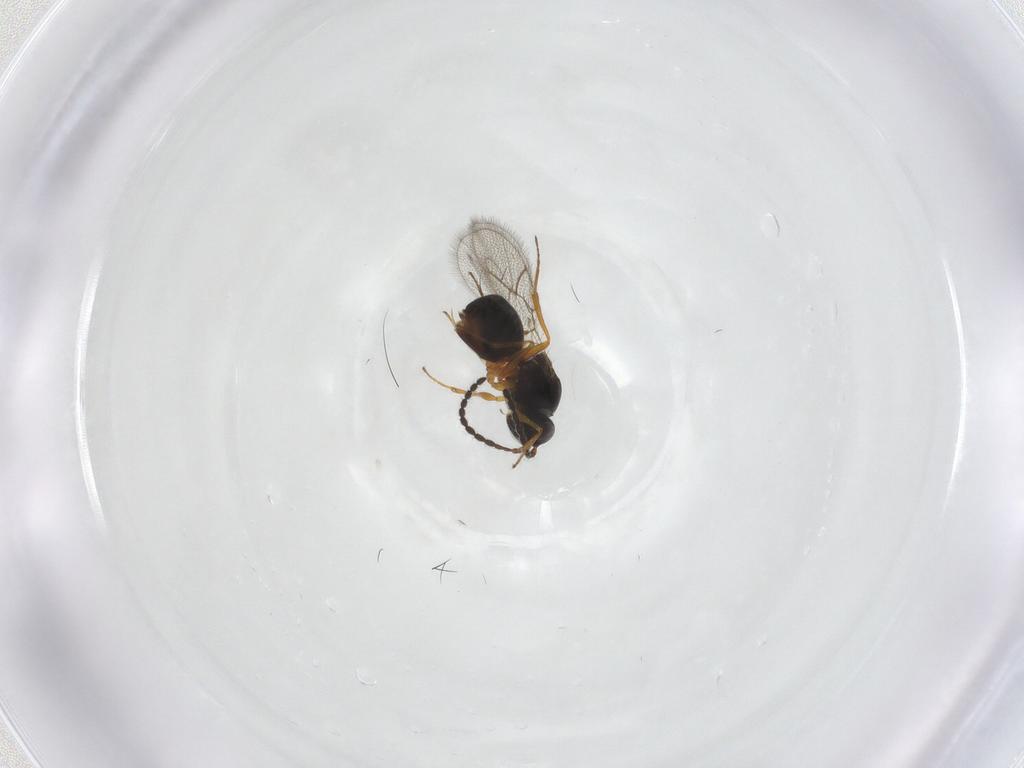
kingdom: Animalia
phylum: Arthropoda
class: Insecta
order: Hymenoptera
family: Figitidae
